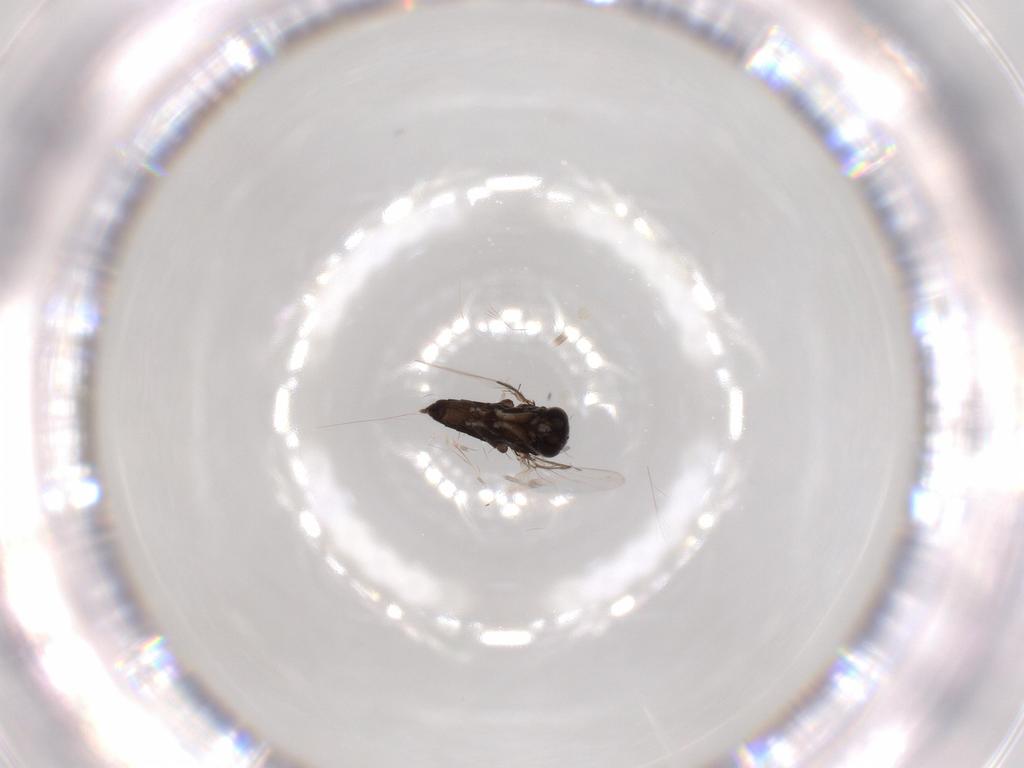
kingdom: Animalia
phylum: Arthropoda
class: Insecta
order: Diptera
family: Phoridae
